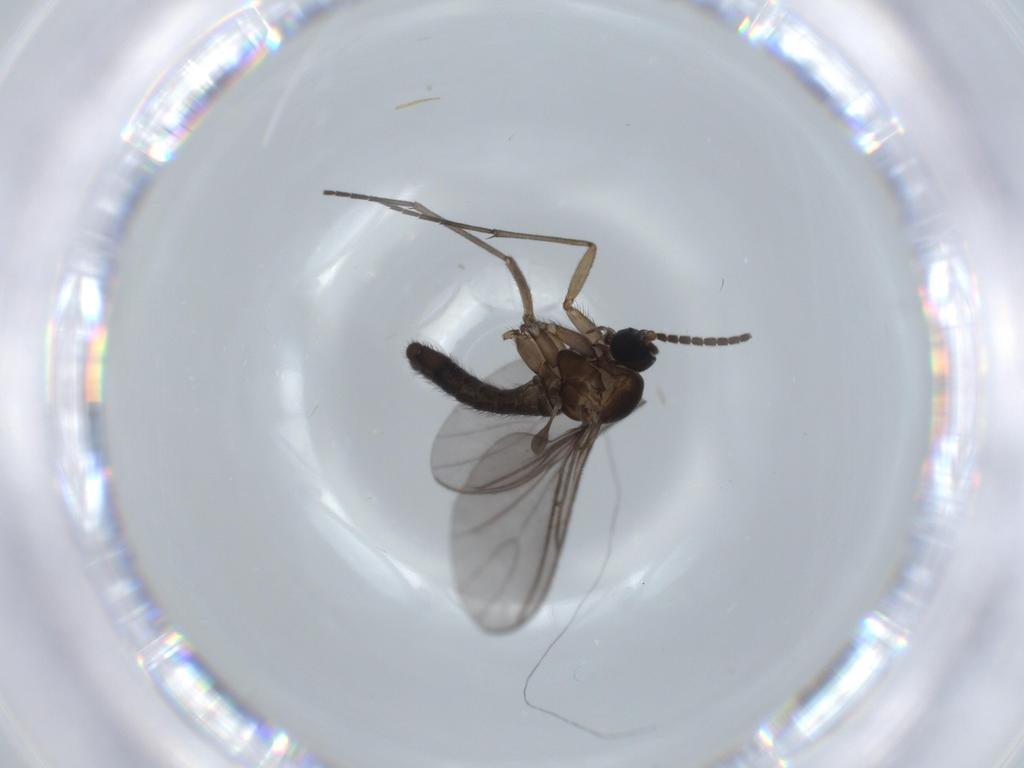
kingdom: Animalia
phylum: Arthropoda
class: Insecta
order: Diptera
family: Sciaridae
